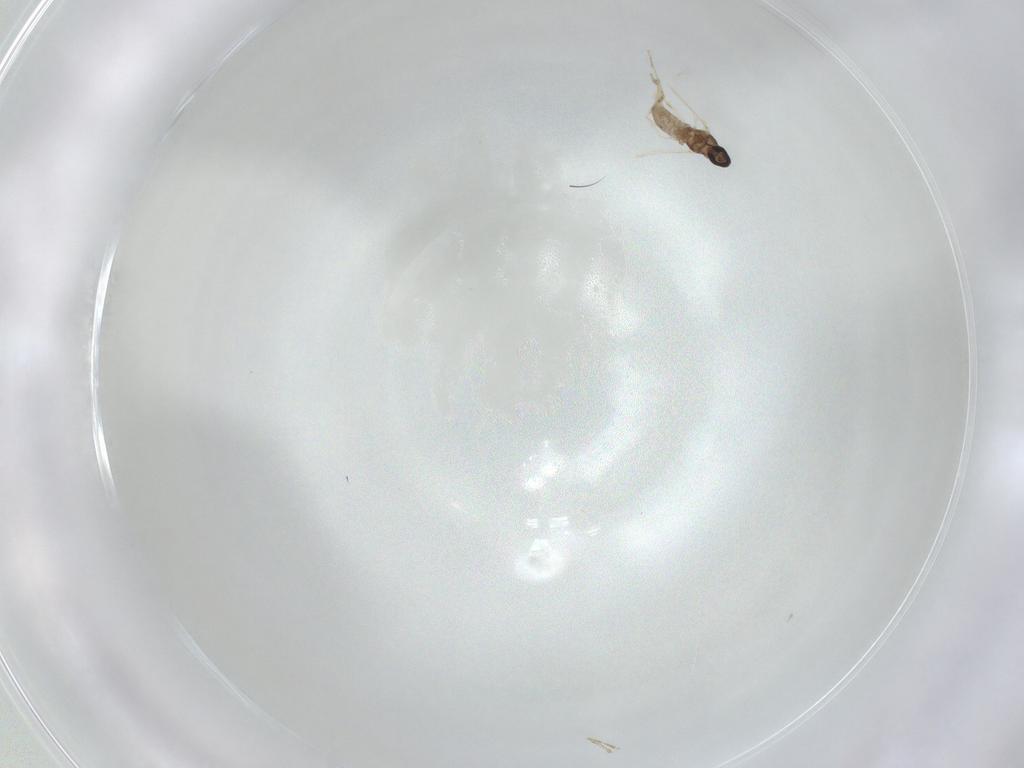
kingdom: Animalia
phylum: Arthropoda
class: Insecta
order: Diptera
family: Cecidomyiidae
